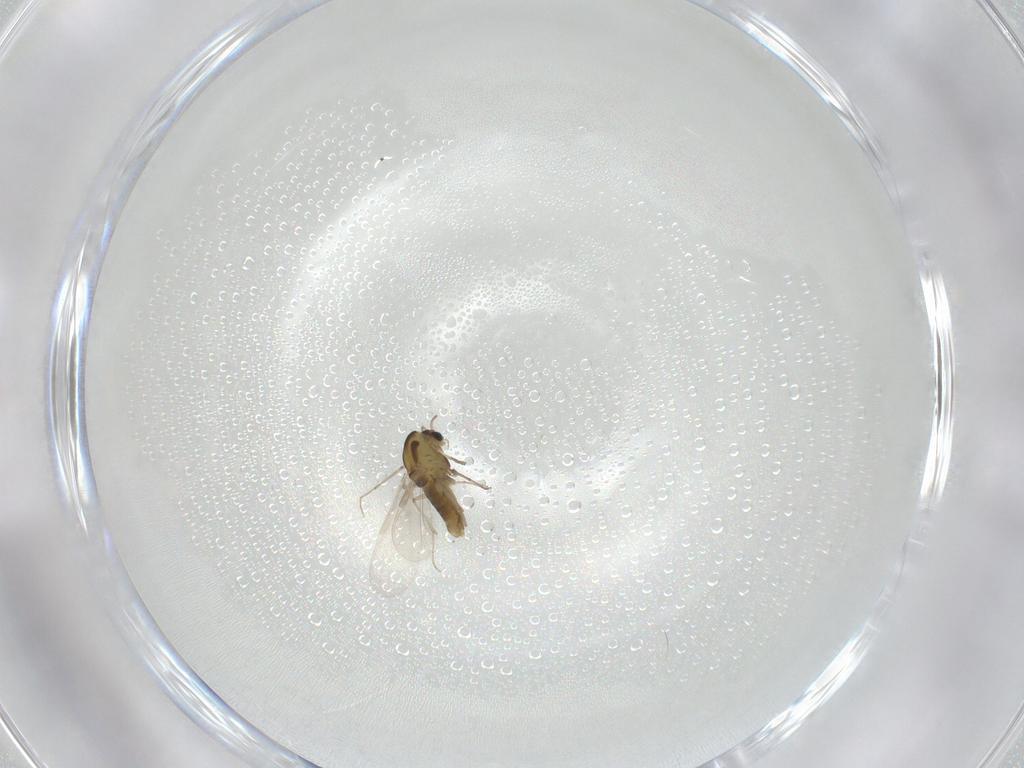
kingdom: Animalia
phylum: Arthropoda
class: Insecta
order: Diptera
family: Chironomidae
